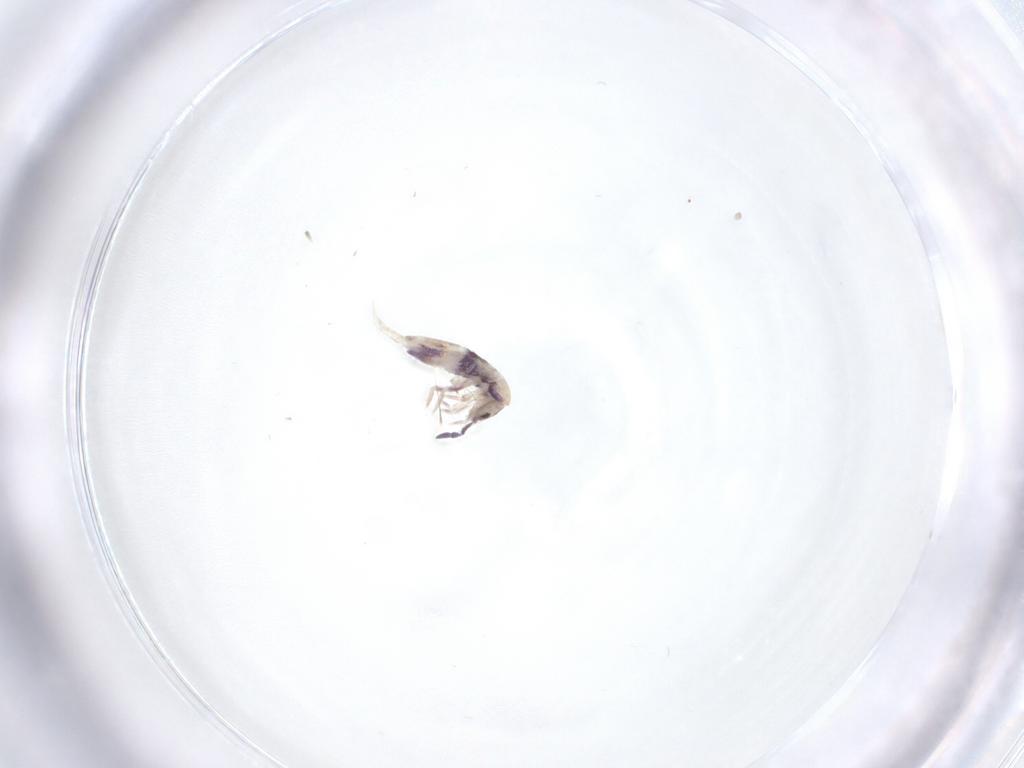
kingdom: Animalia
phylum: Arthropoda
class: Collembola
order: Entomobryomorpha
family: Entomobryidae
